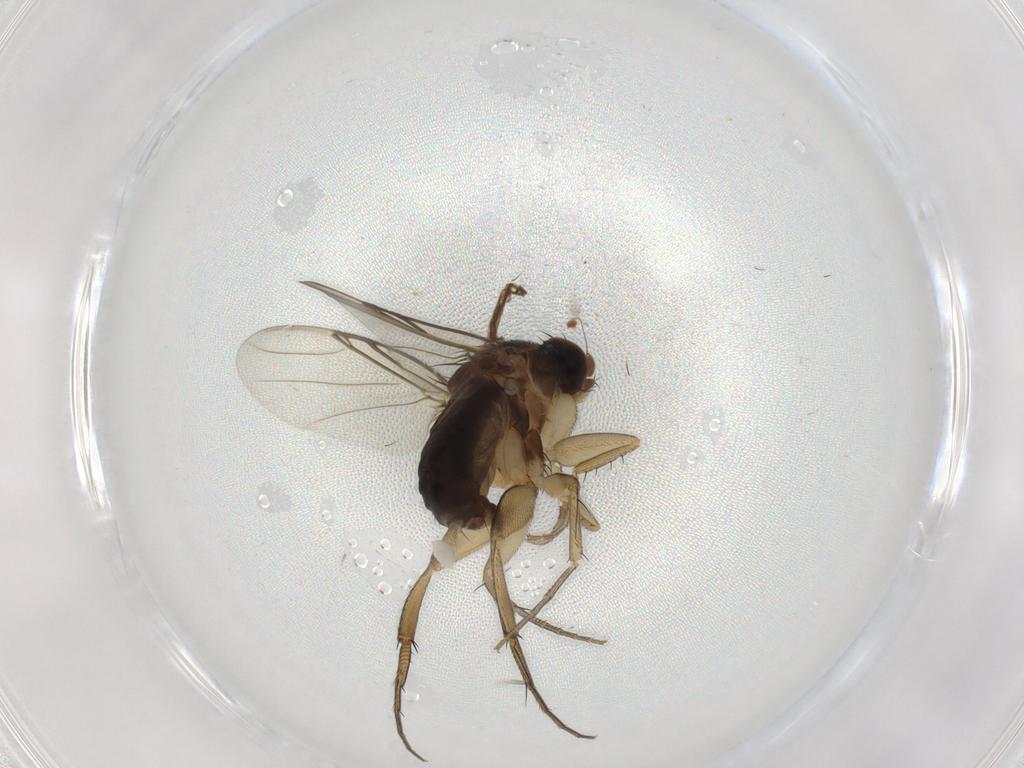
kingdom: Animalia
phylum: Arthropoda
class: Insecta
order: Diptera
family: Phoridae
